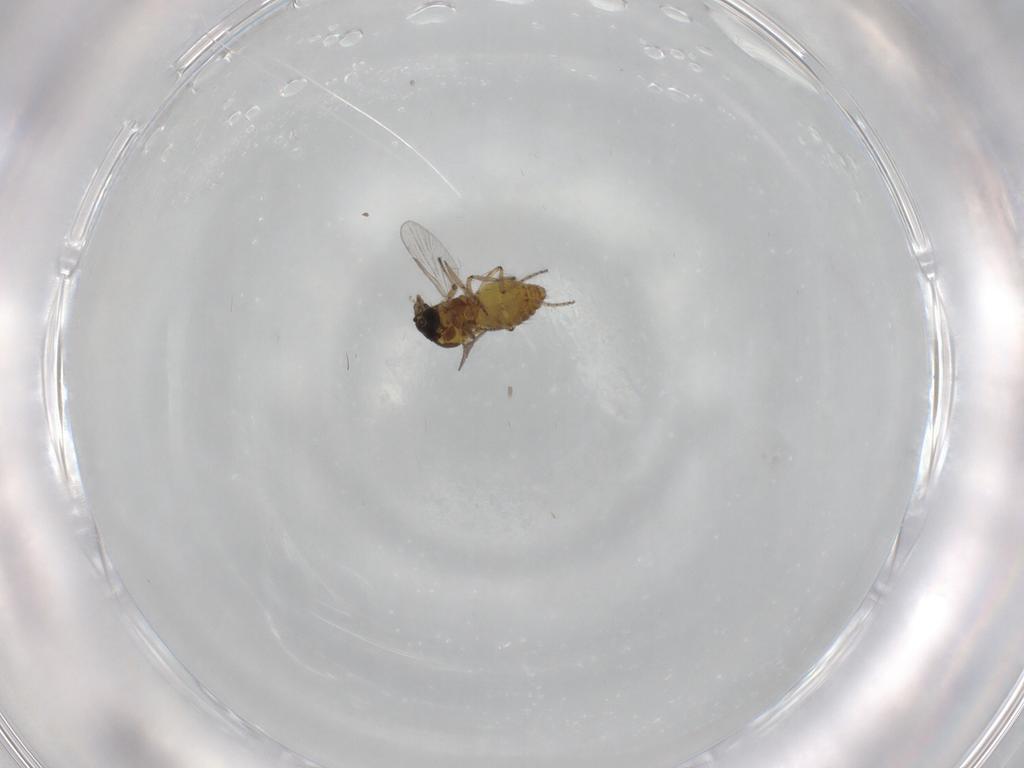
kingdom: Animalia
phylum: Arthropoda
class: Insecta
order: Diptera
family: Ceratopogonidae
